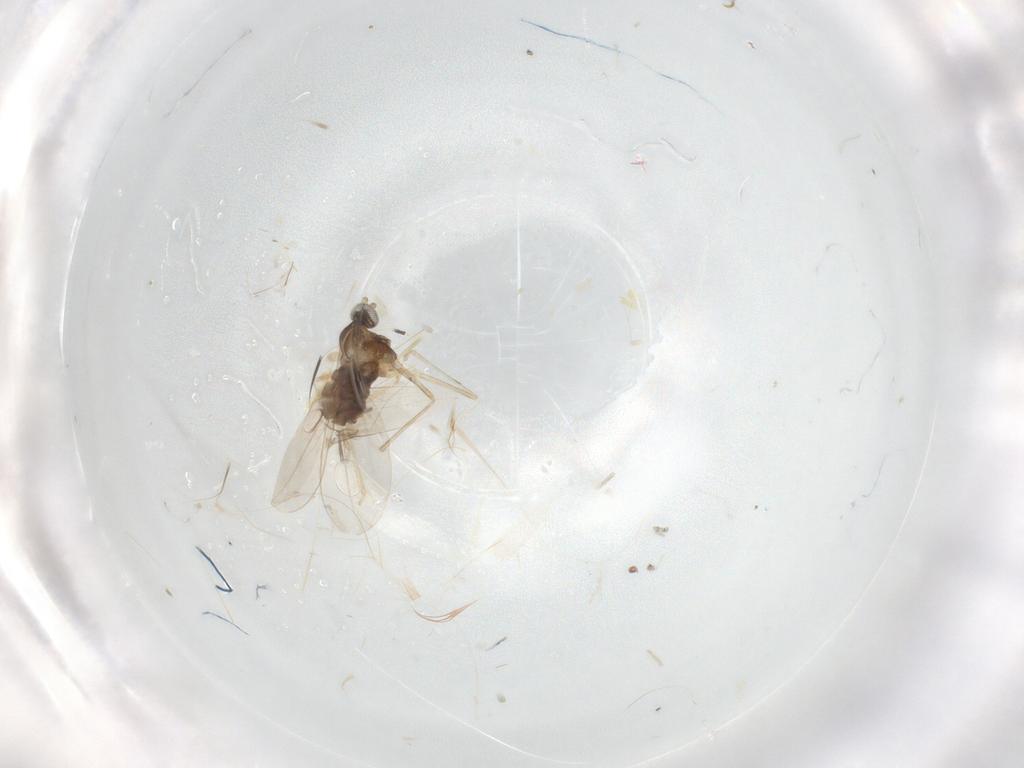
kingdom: Animalia
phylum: Arthropoda
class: Insecta
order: Diptera
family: Cecidomyiidae
